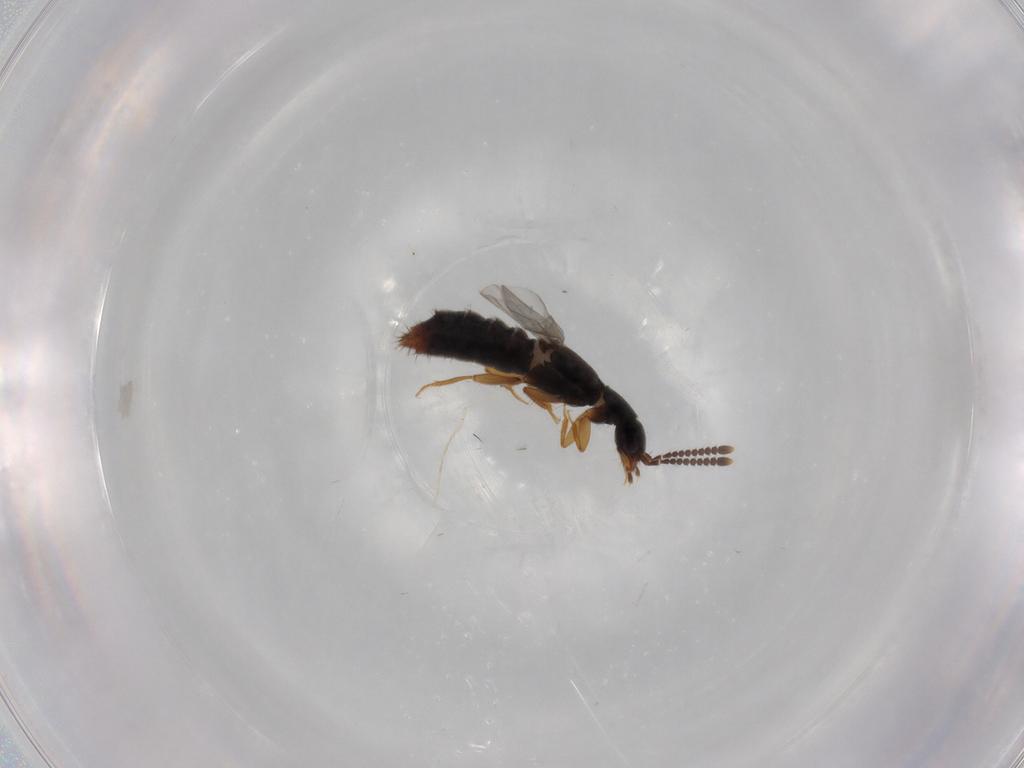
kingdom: Animalia
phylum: Arthropoda
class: Insecta
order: Coleoptera
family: Staphylinidae
